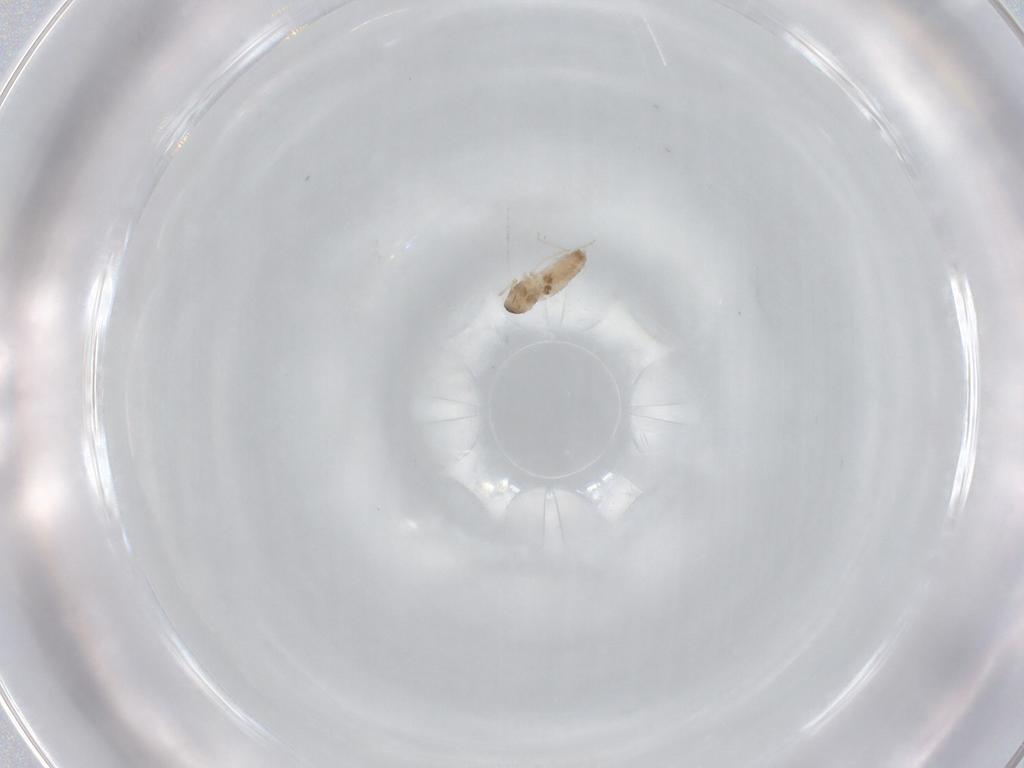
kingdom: Animalia
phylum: Arthropoda
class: Insecta
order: Diptera
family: Cecidomyiidae
